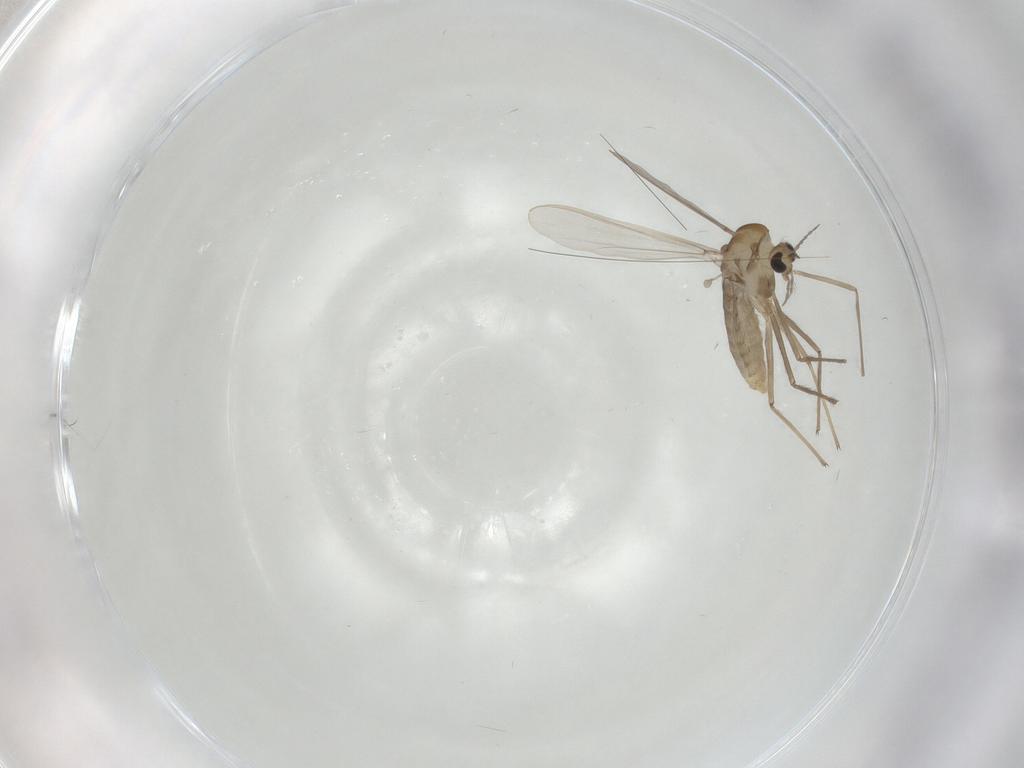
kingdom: Animalia
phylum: Arthropoda
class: Insecta
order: Diptera
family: Chironomidae
